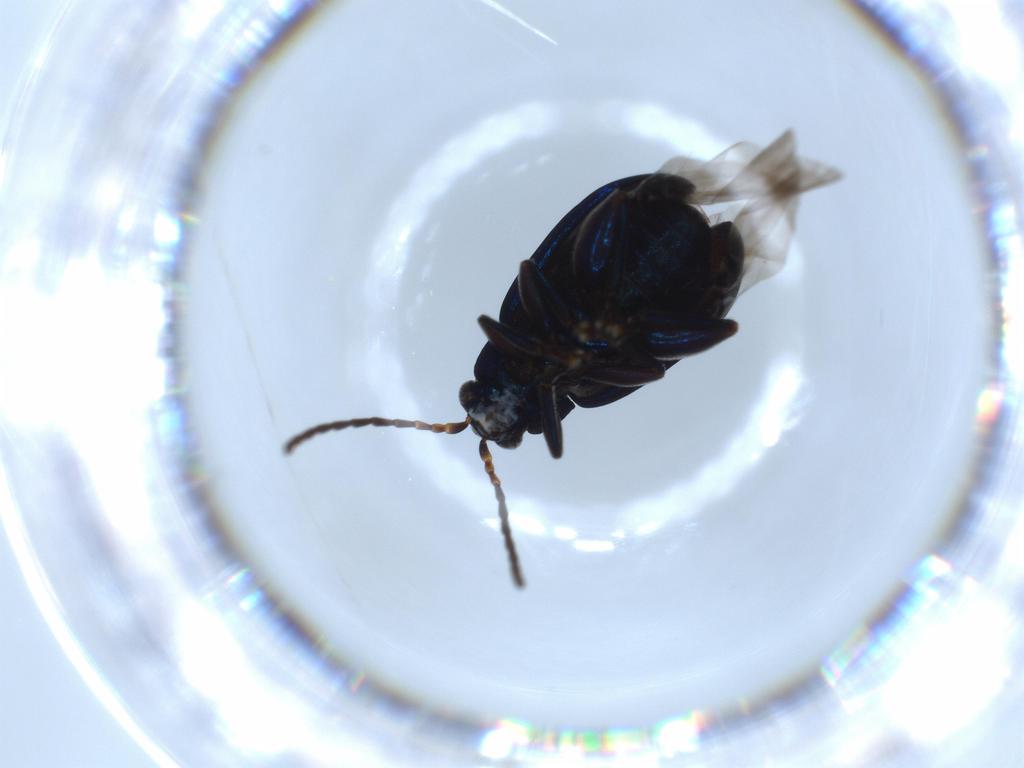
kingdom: Animalia
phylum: Arthropoda
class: Insecta
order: Coleoptera
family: Chrysomelidae
